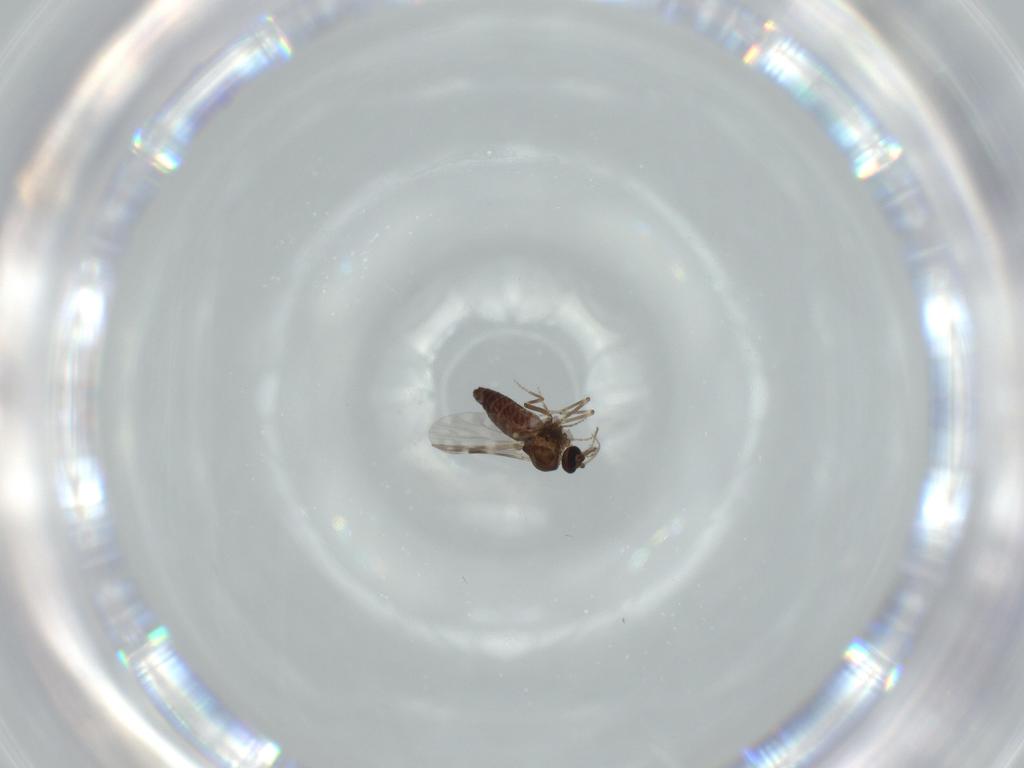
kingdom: Animalia
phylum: Arthropoda
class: Insecta
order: Diptera
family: Ceratopogonidae
